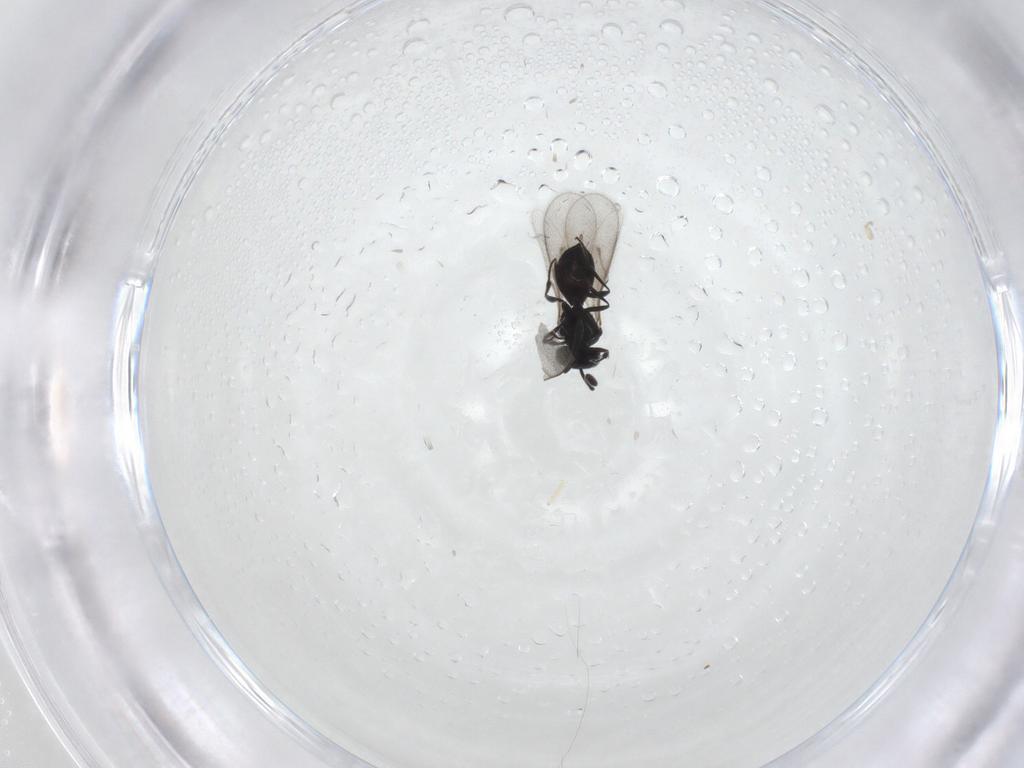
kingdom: Animalia
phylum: Arthropoda
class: Insecta
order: Hymenoptera
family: Scelionidae
